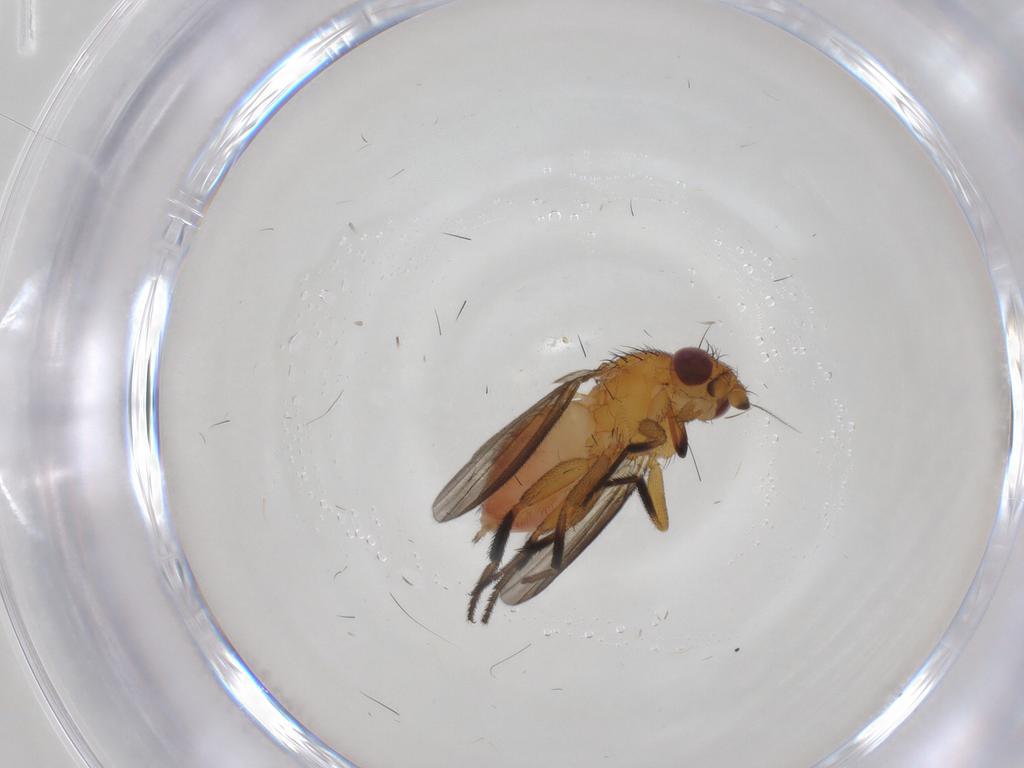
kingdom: Animalia
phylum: Arthropoda
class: Insecta
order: Diptera
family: Milichiidae
